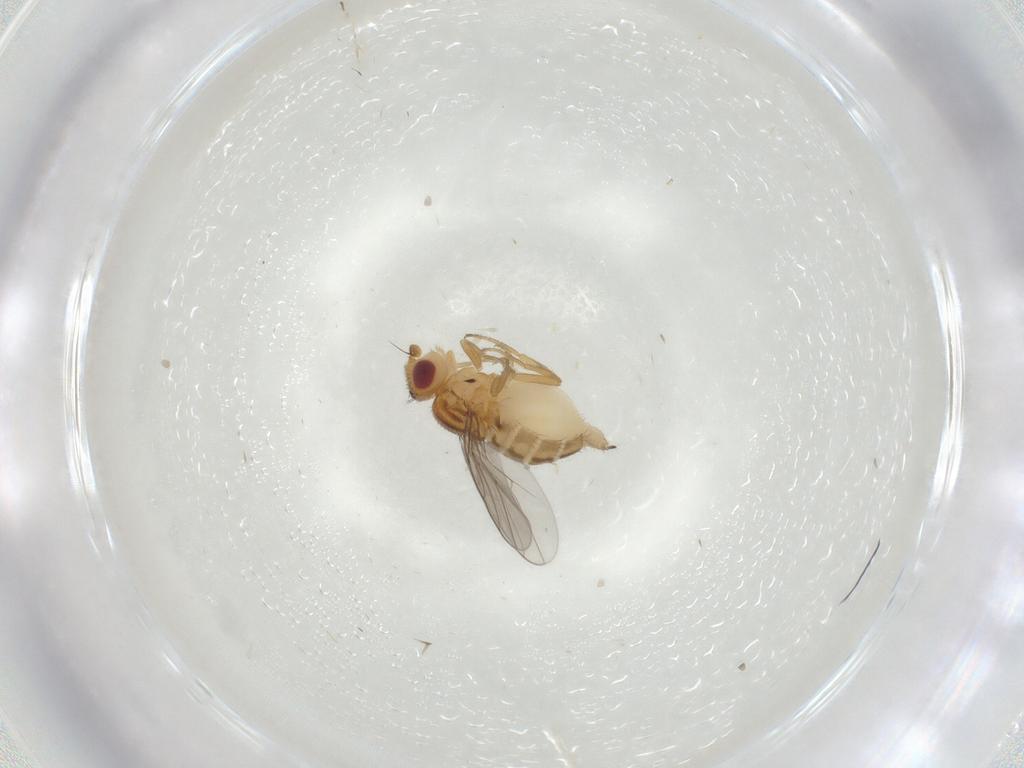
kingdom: Animalia
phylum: Arthropoda
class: Insecta
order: Diptera
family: Chloropidae
